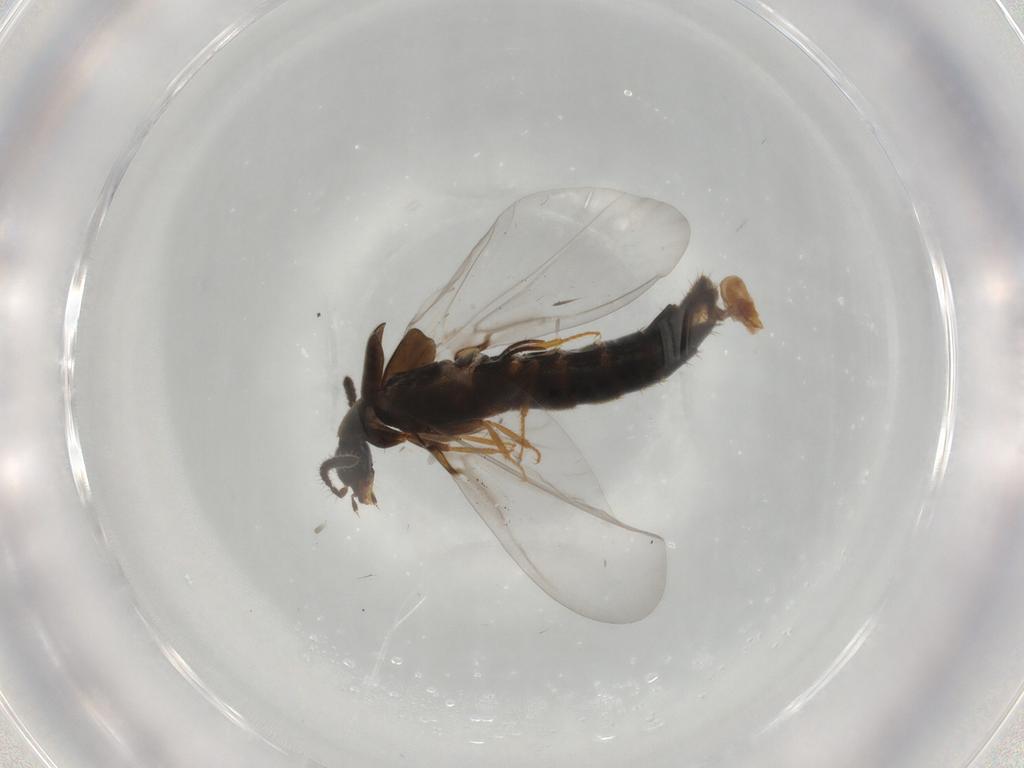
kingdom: Animalia
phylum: Arthropoda
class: Insecta
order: Coleoptera
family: Staphylinidae
